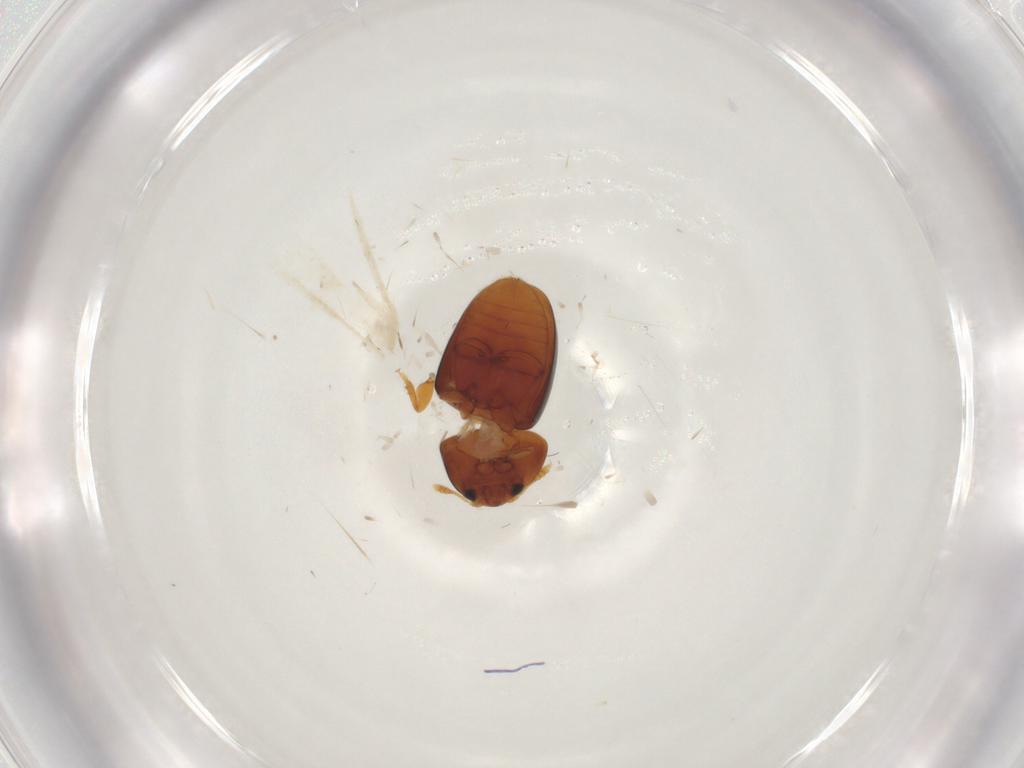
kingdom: Animalia
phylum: Arthropoda
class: Insecta
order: Coleoptera
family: Phalacridae
